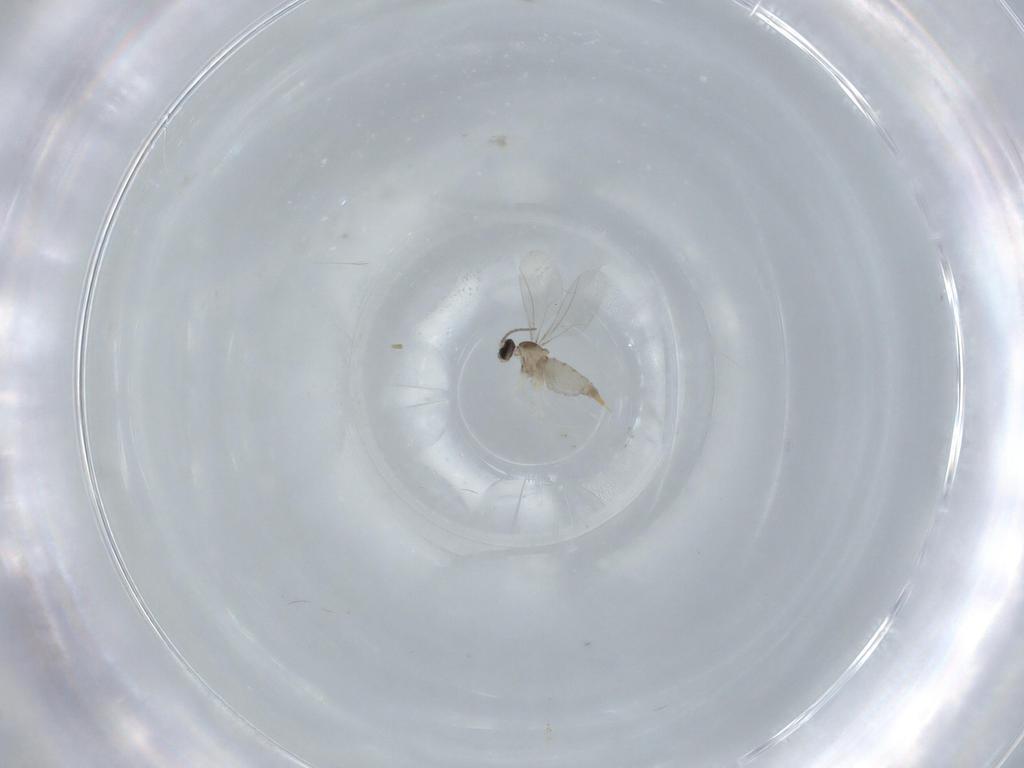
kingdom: Animalia
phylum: Arthropoda
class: Insecta
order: Diptera
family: Cecidomyiidae
